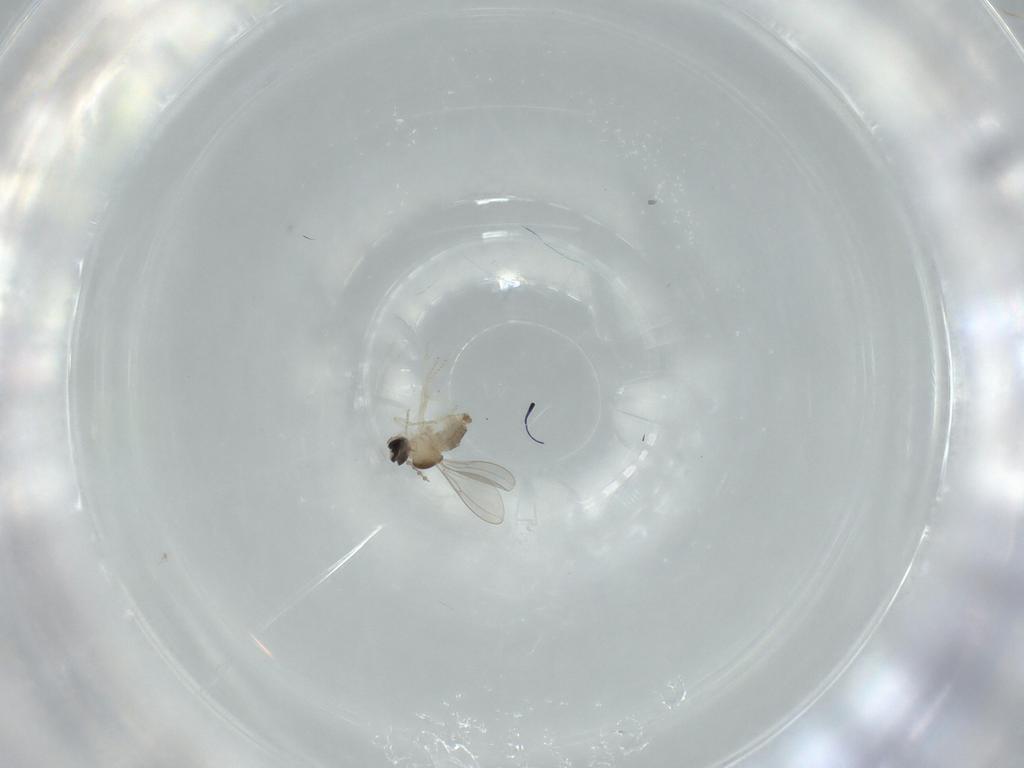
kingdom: Animalia
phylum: Arthropoda
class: Insecta
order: Diptera
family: Cecidomyiidae
